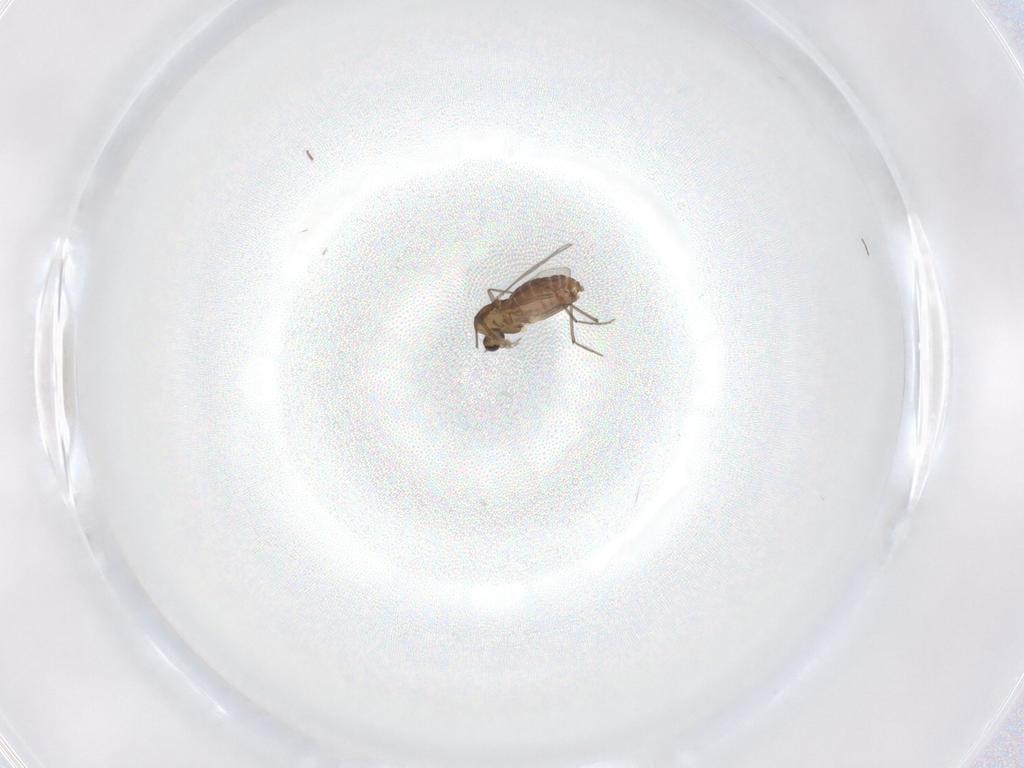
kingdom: Animalia
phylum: Arthropoda
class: Insecta
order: Diptera
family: Chironomidae
